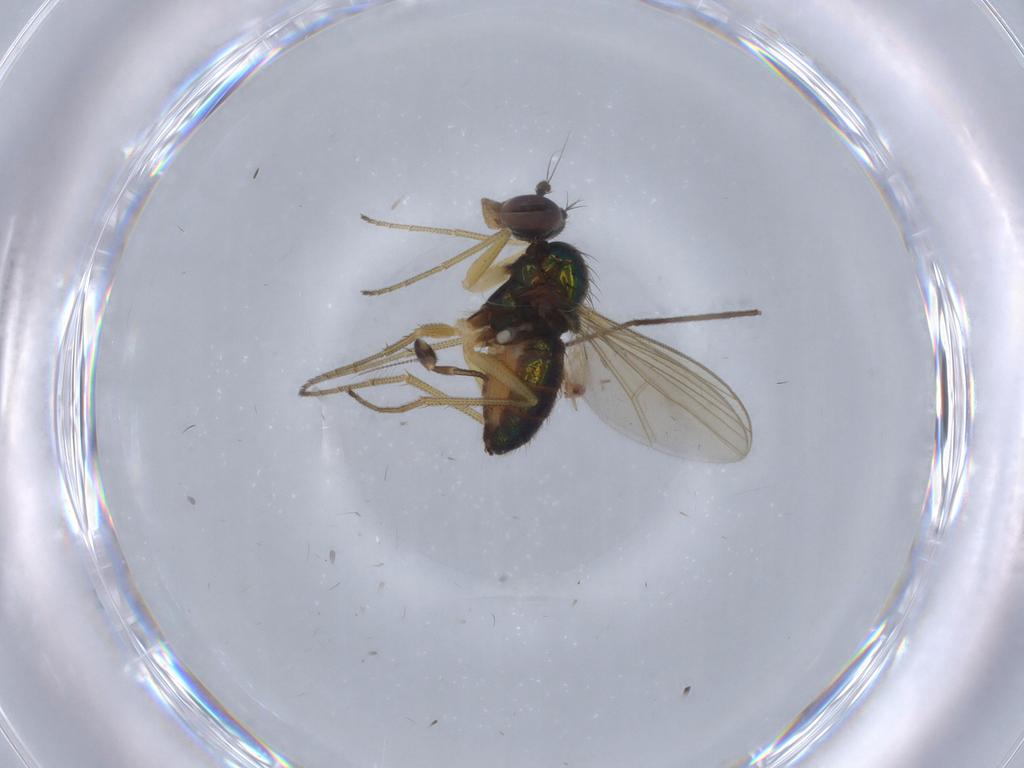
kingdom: Animalia
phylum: Arthropoda
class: Insecta
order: Diptera
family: Dolichopodidae
